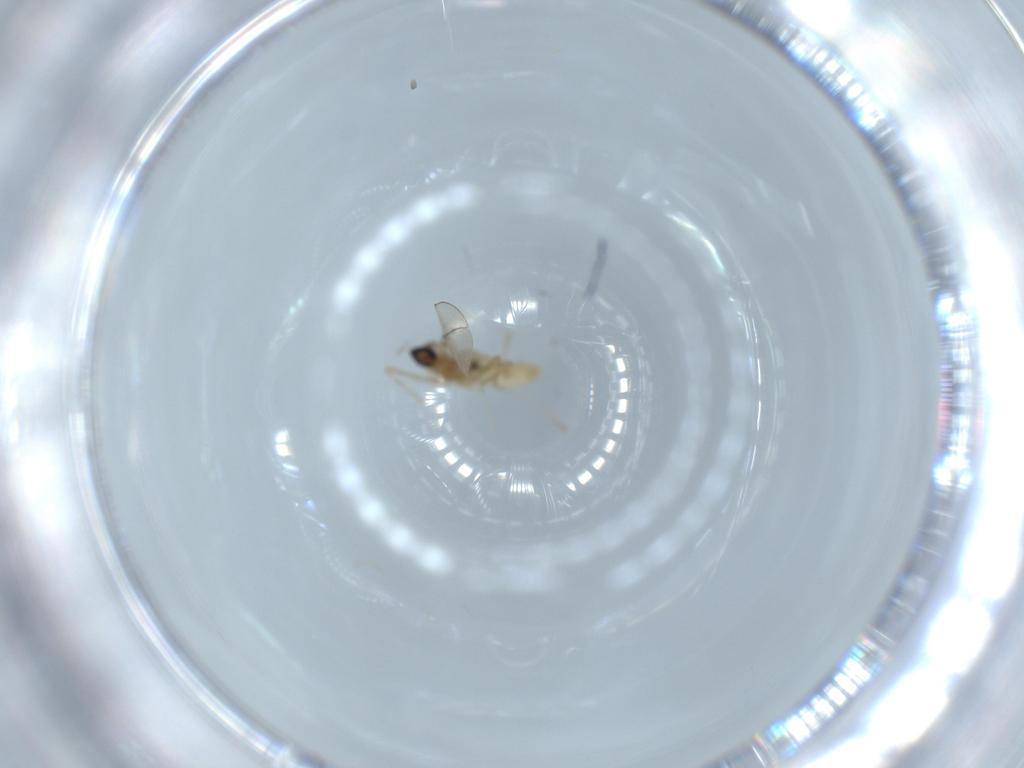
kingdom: Animalia
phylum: Arthropoda
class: Insecta
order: Diptera
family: Cecidomyiidae
